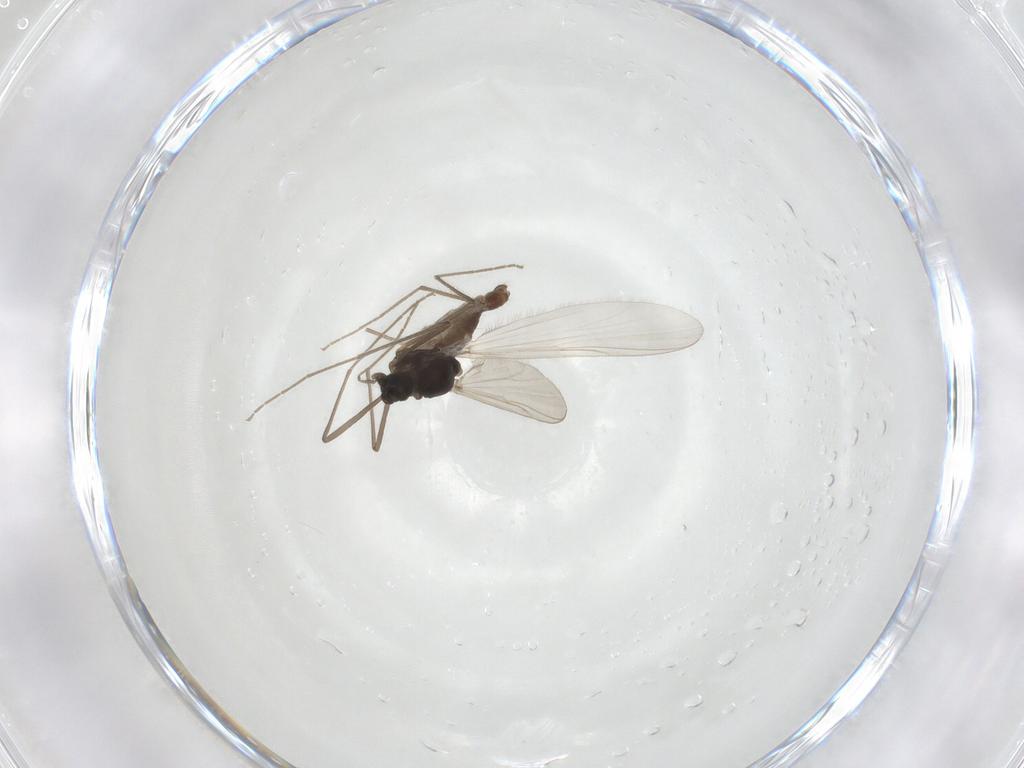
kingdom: Animalia
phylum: Arthropoda
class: Insecta
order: Diptera
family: Chironomidae
